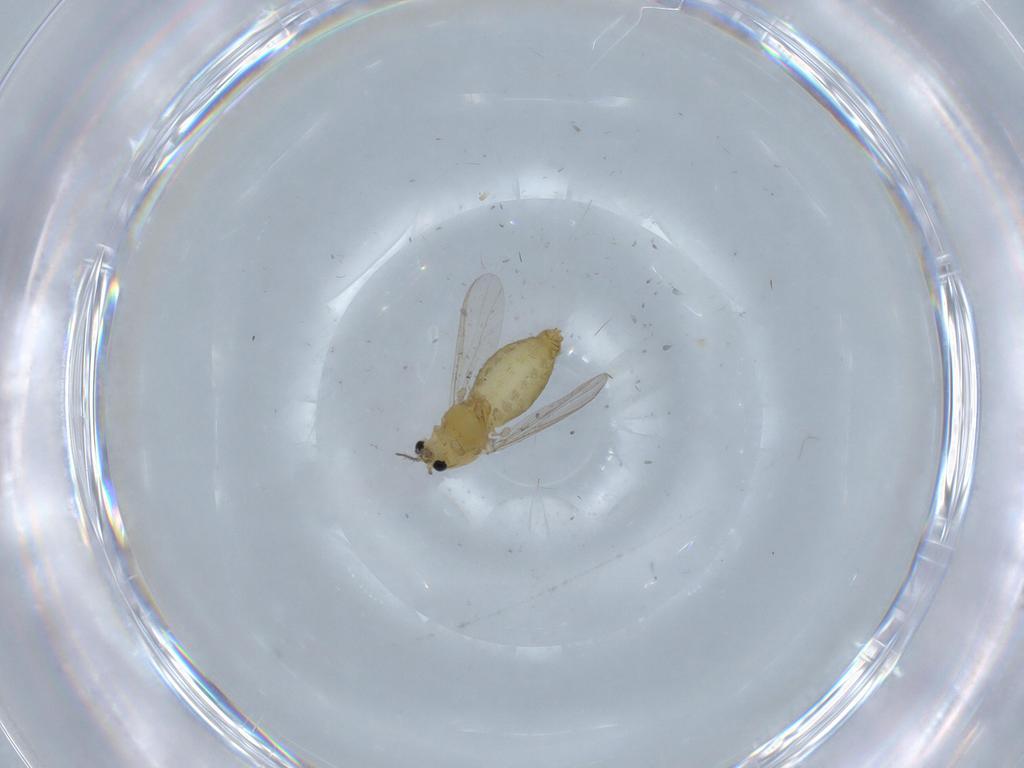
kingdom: Animalia
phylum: Arthropoda
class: Insecta
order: Diptera
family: Chironomidae
